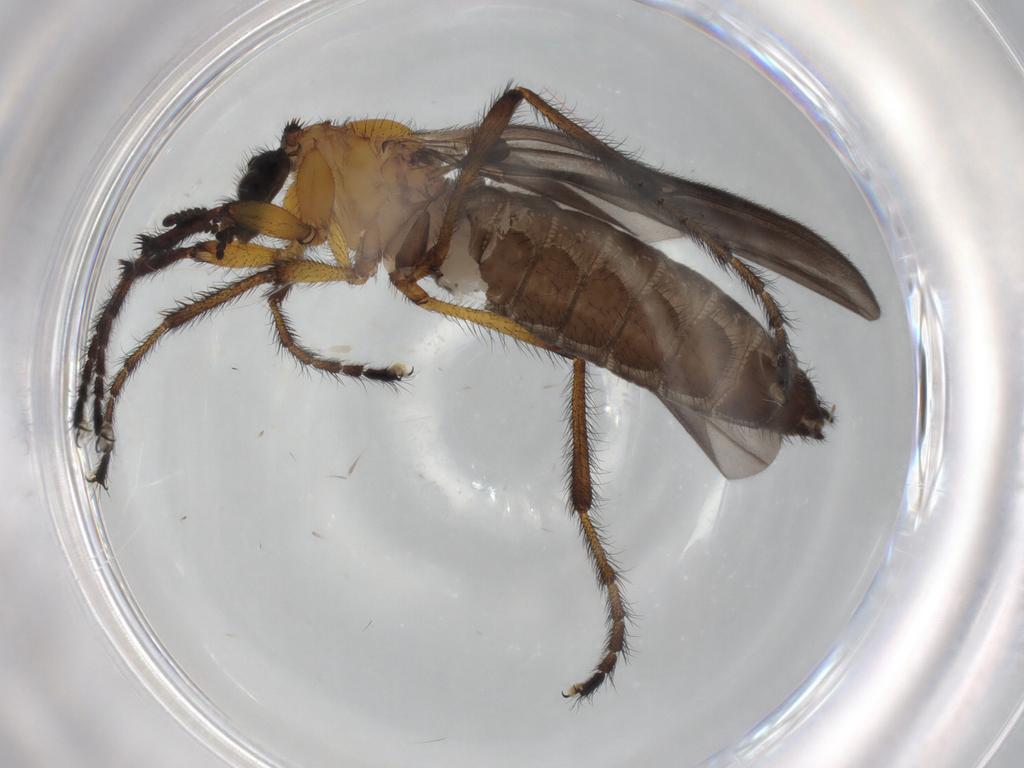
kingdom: Animalia
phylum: Arthropoda
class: Insecta
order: Diptera
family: Bibionidae
